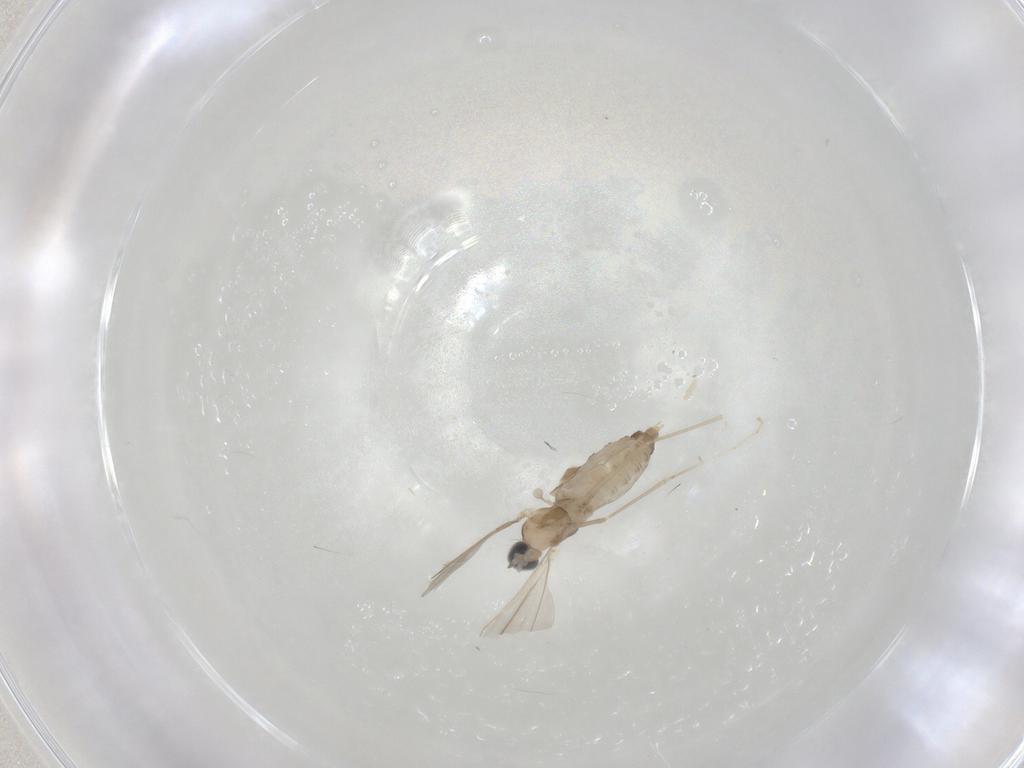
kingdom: Animalia
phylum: Arthropoda
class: Insecta
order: Diptera
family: Cecidomyiidae
